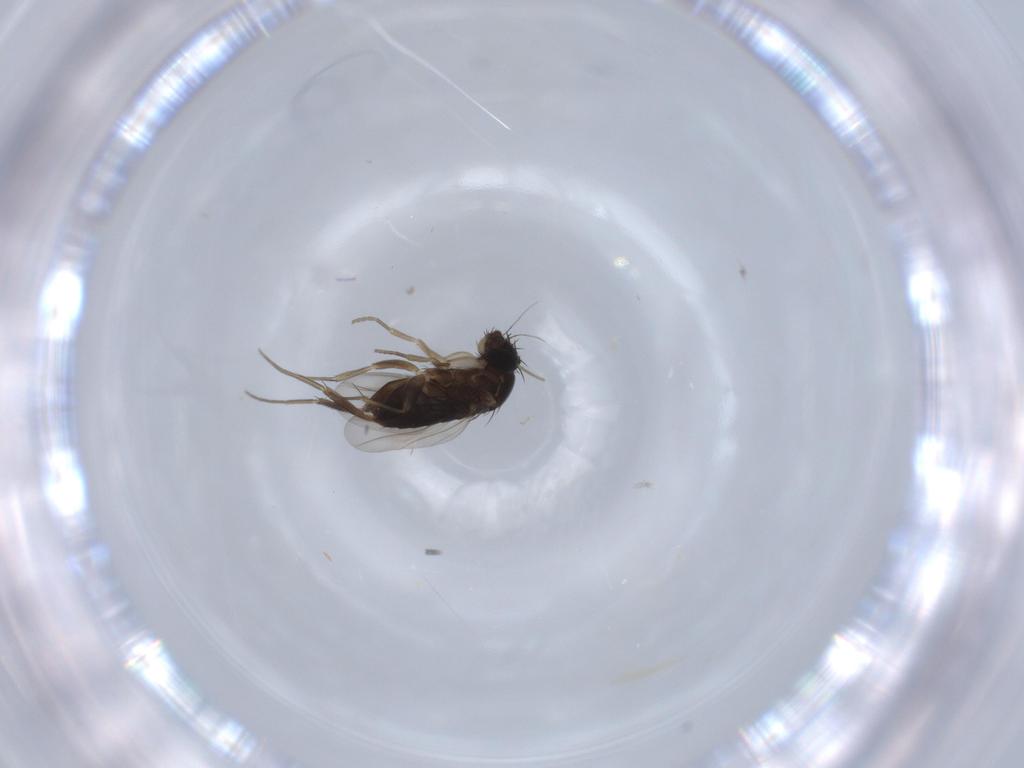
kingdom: Animalia
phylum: Arthropoda
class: Insecta
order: Diptera
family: Phoridae
